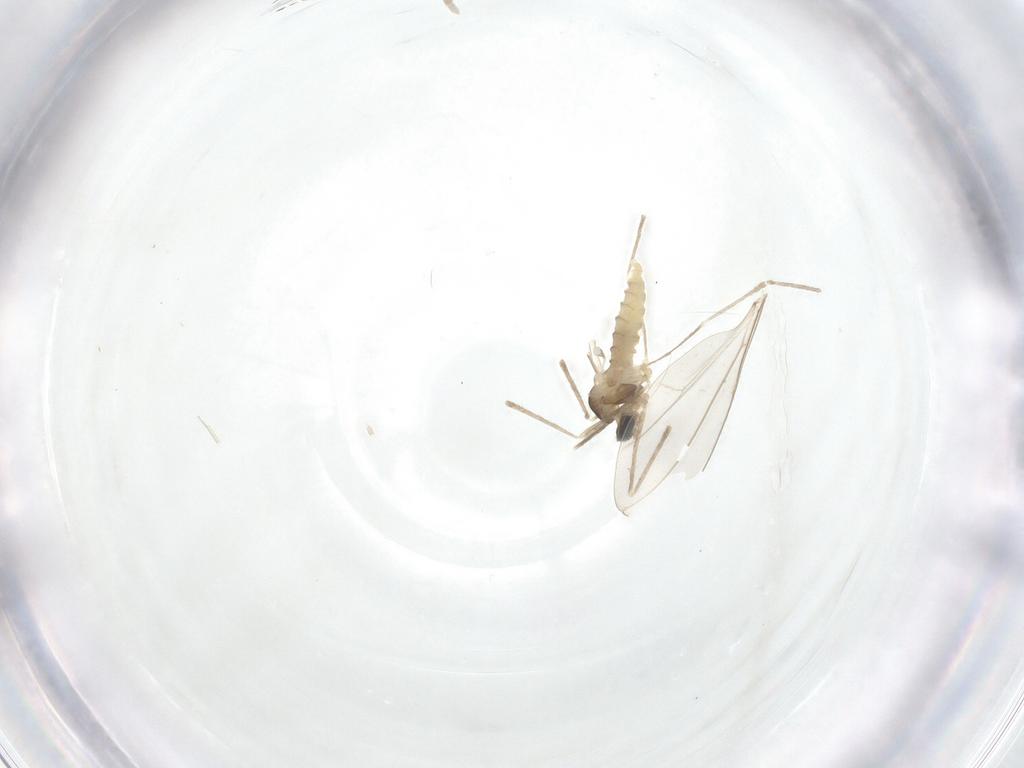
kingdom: Animalia
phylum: Arthropoda
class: Insecta
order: Diptera
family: Cecidomyiidae
